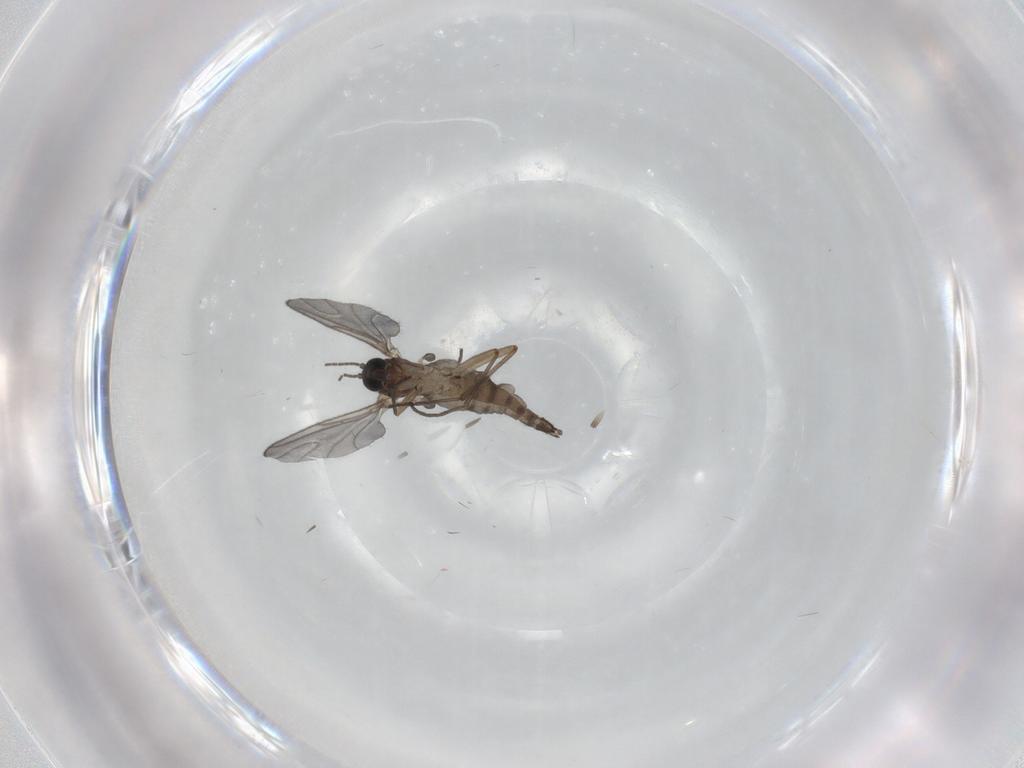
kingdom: Animalia
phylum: Arthropoda
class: Insecta
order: Diptera
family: Sciaridae
